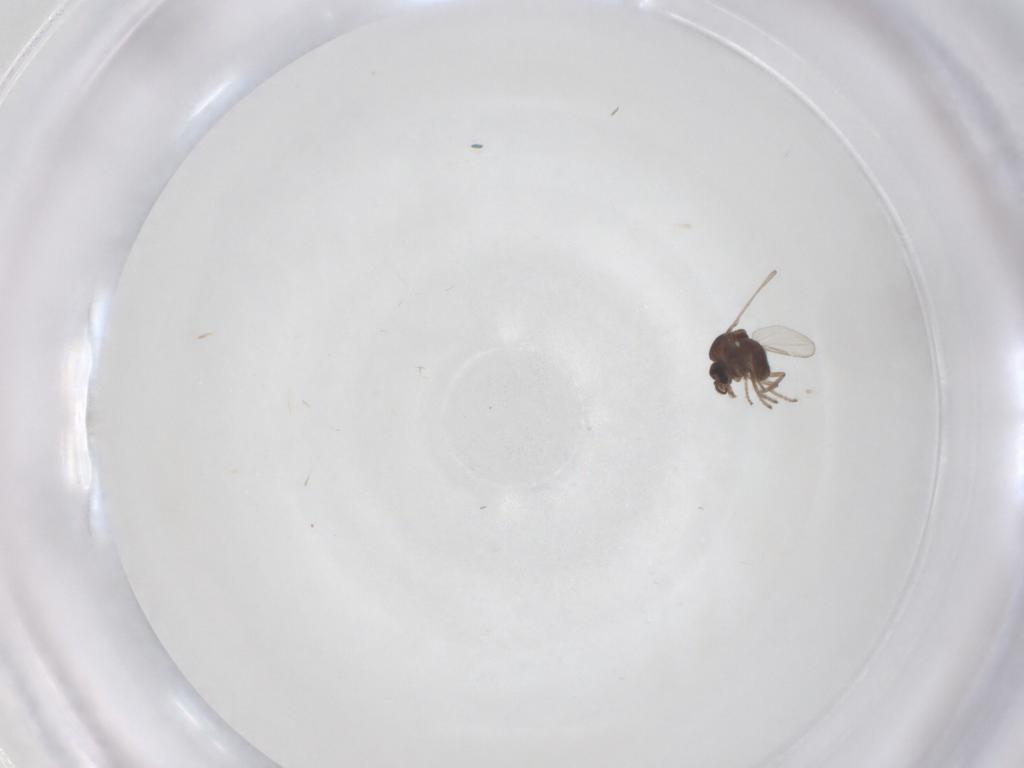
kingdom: Animalia
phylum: Arthropoda
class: Insecta
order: Diptera
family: Ceratopogonidae
